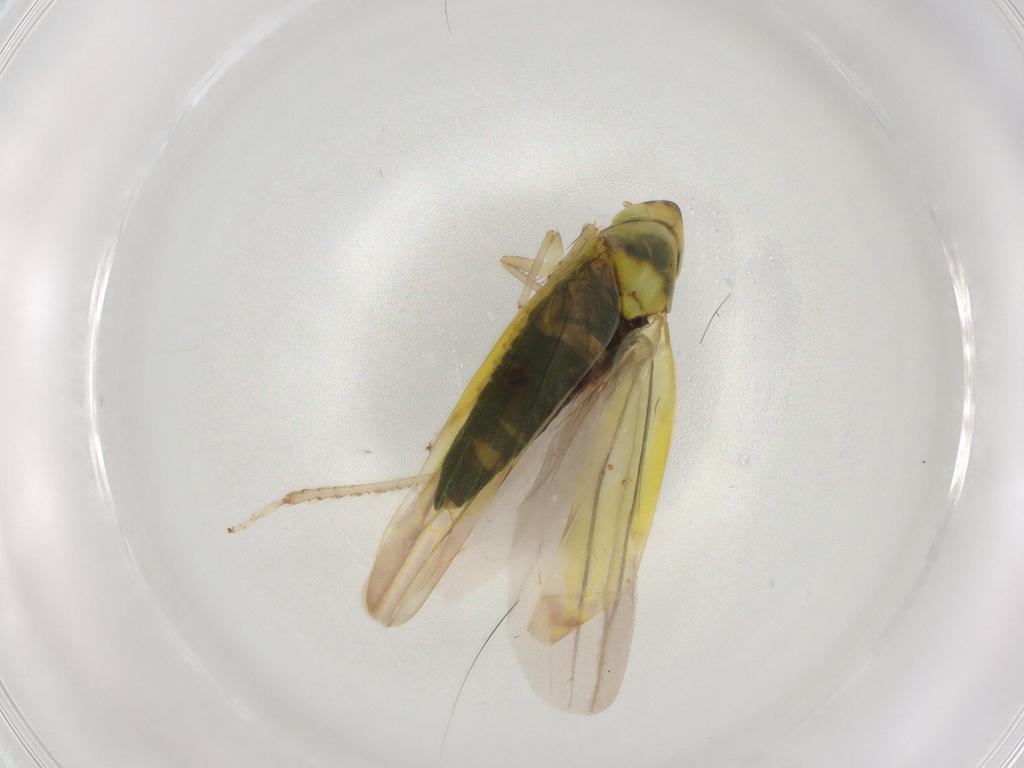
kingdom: Animalia
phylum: Arthropoda
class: Insecta
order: Hemiptera
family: Cicadellidae
